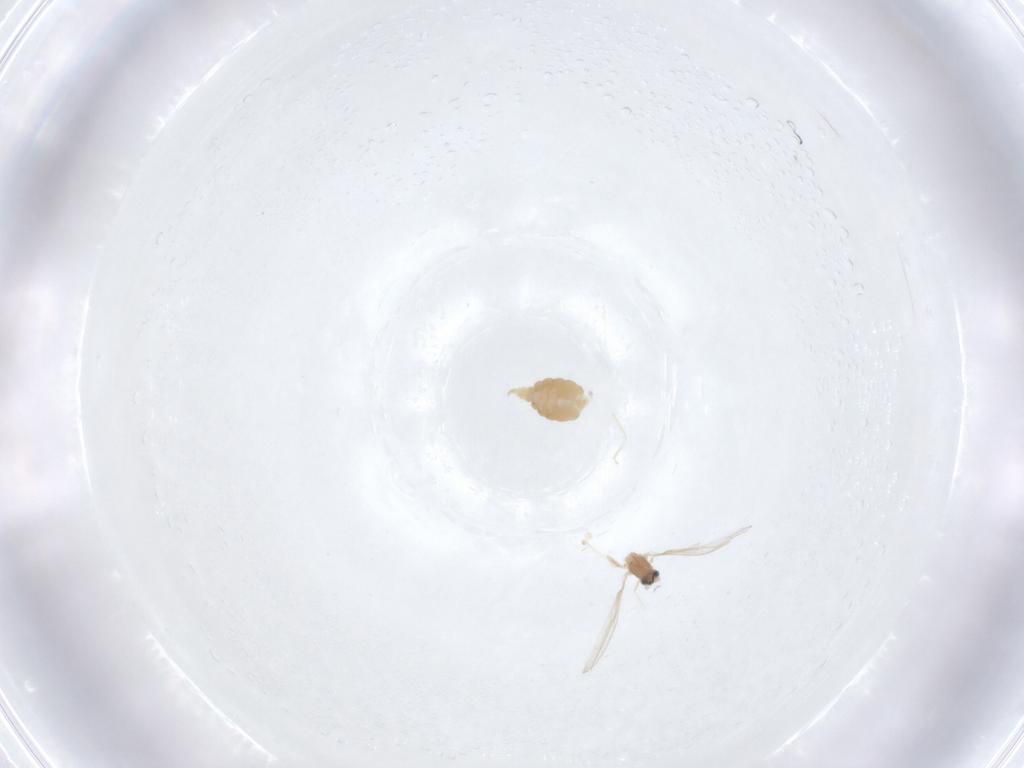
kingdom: Animalia
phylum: Arthropoda
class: Insecta
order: Diptera
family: Cecidomyiidae
